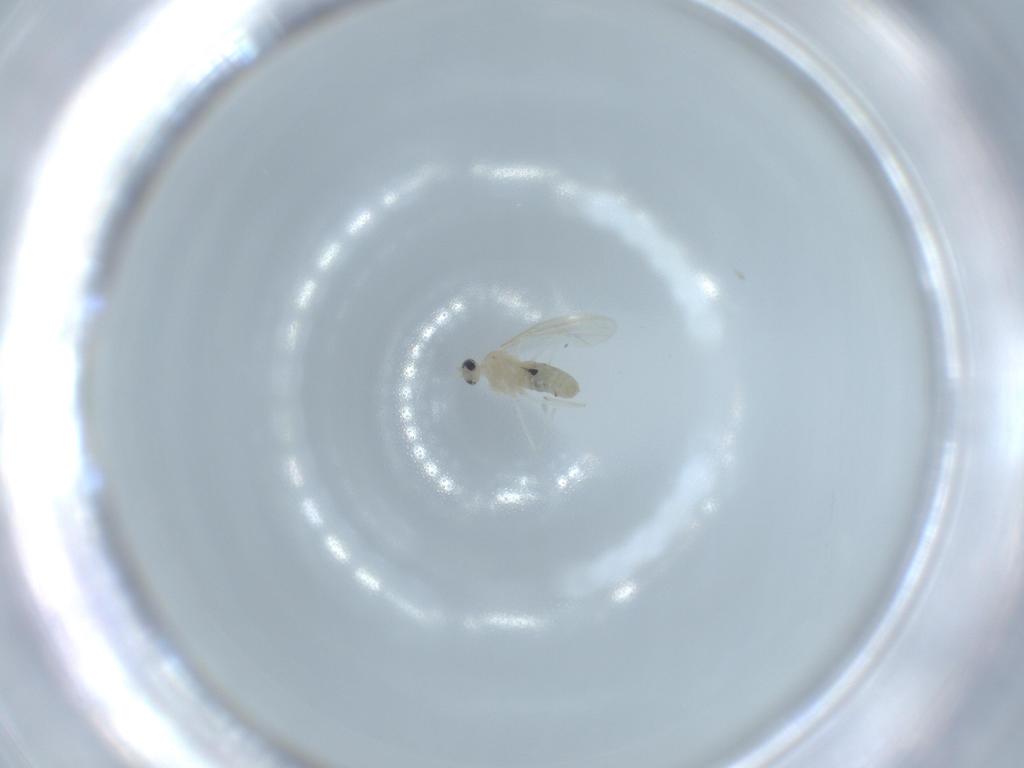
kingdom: Animalia
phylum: Arthropoda
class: Insecta
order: Diptera
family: Cecidomyiidae
